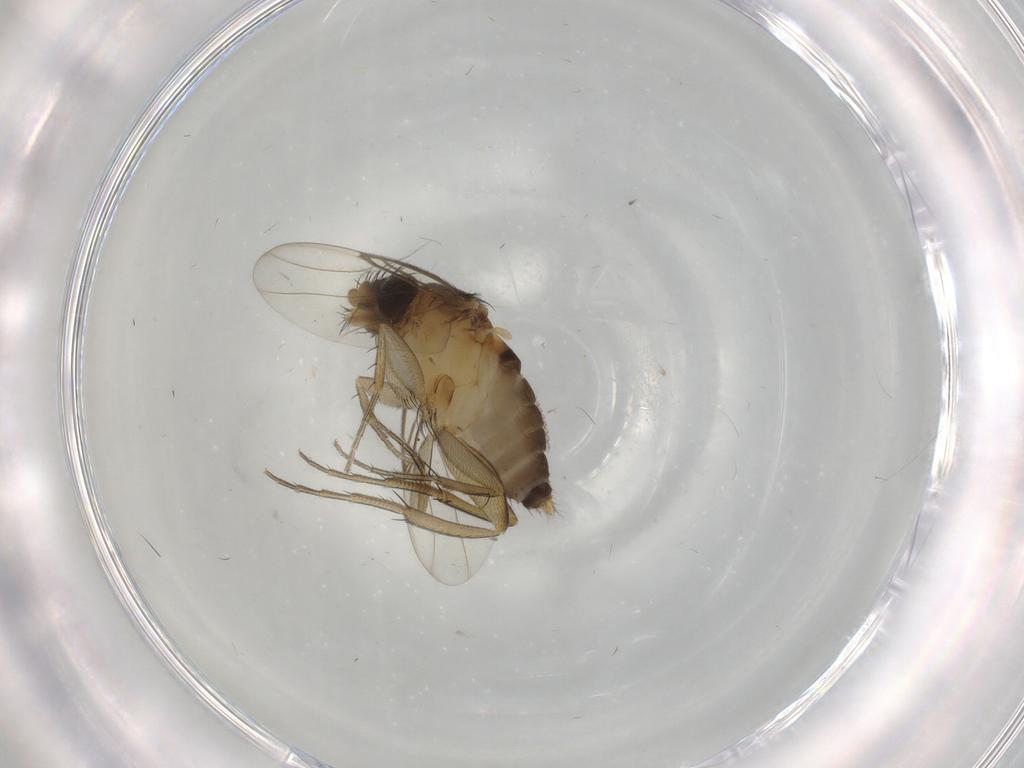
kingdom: Animalia
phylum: Arthropoda
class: Insecta
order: Diptera
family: Phoridae
